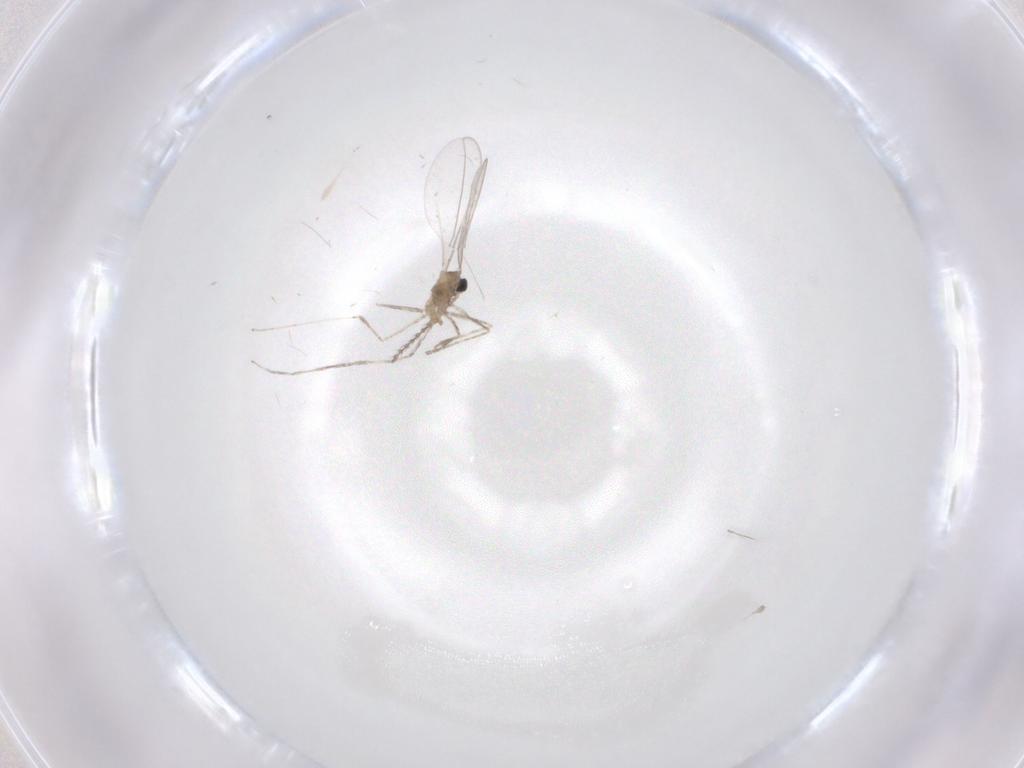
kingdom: Animalia
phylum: Arthropoda
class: Insecta
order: Diptera
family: Cecidomyiidae
